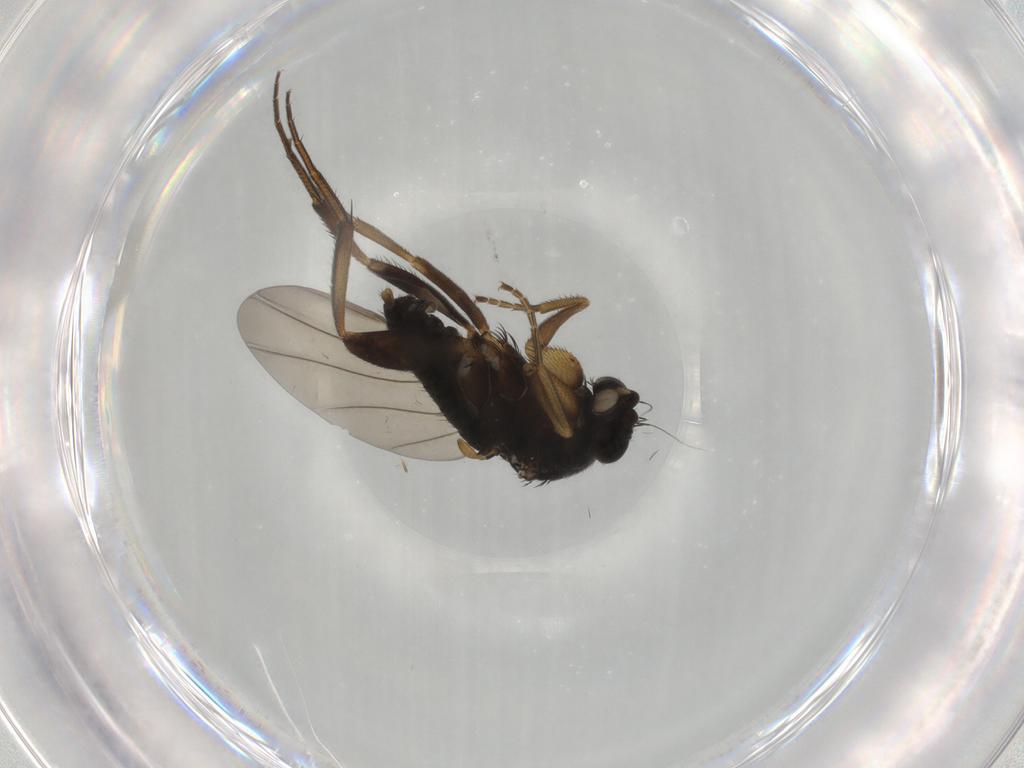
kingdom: Animalia
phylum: Arthropoda
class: Insecta
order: Diptera
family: Phoridae
